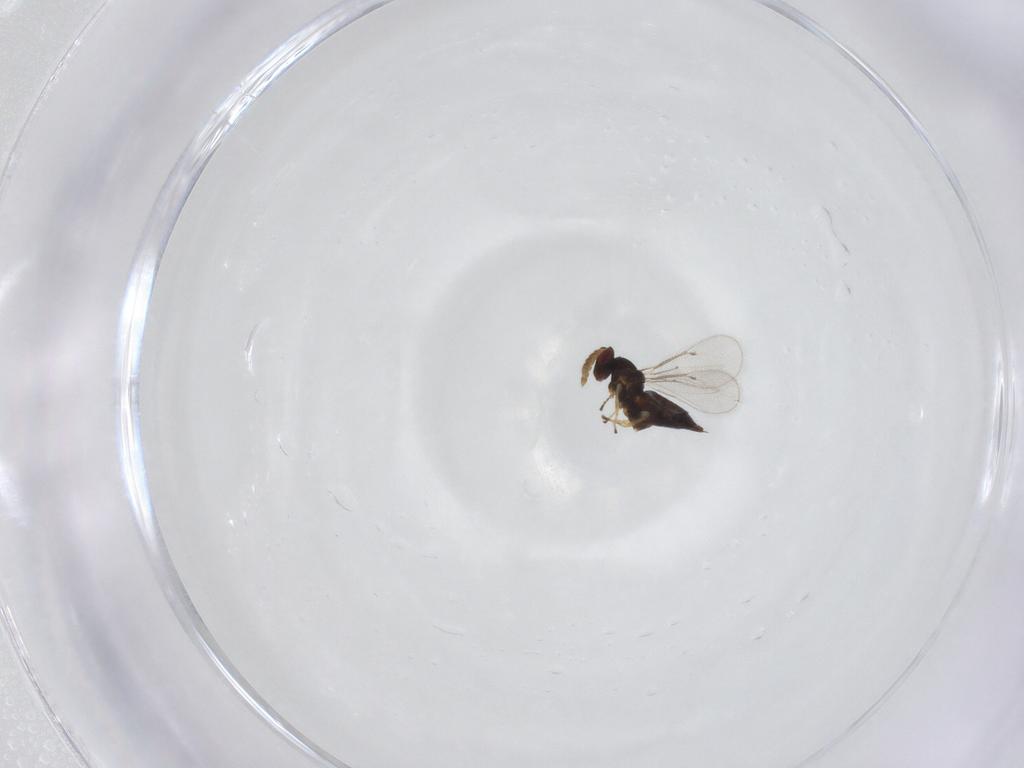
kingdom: Animalia
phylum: Arthropoda
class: Insecta
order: Hymenoptera
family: Eulophidae
